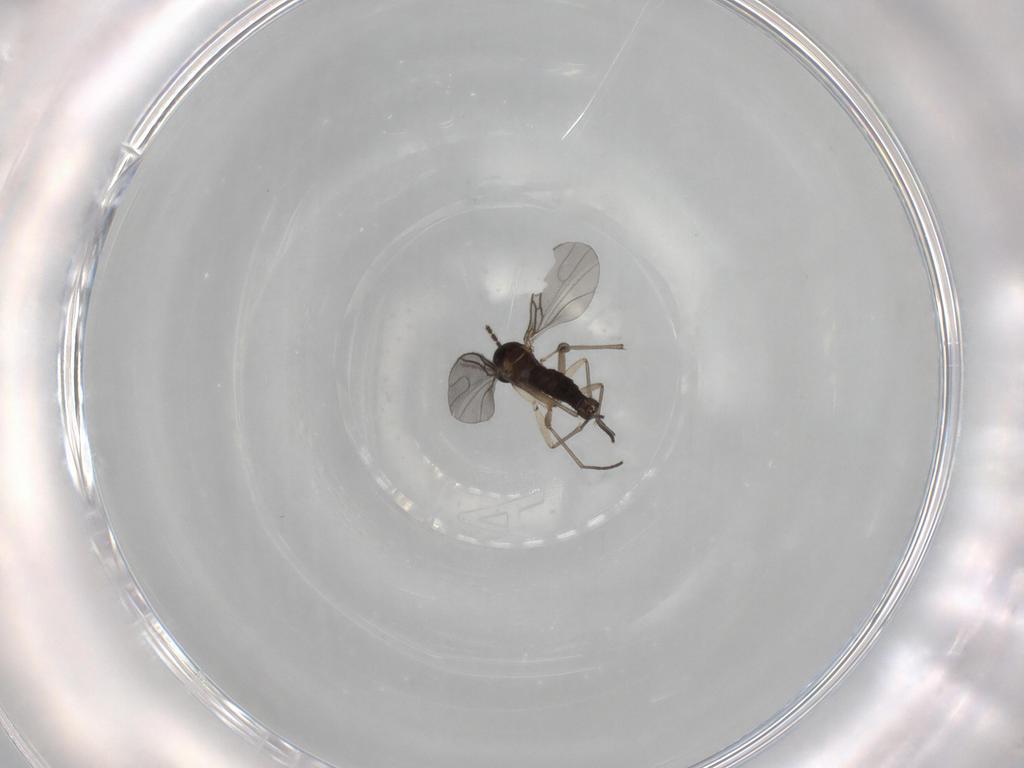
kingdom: Animalia
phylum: Arthropoda
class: Insecta
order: Diptera
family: Sciaridae
